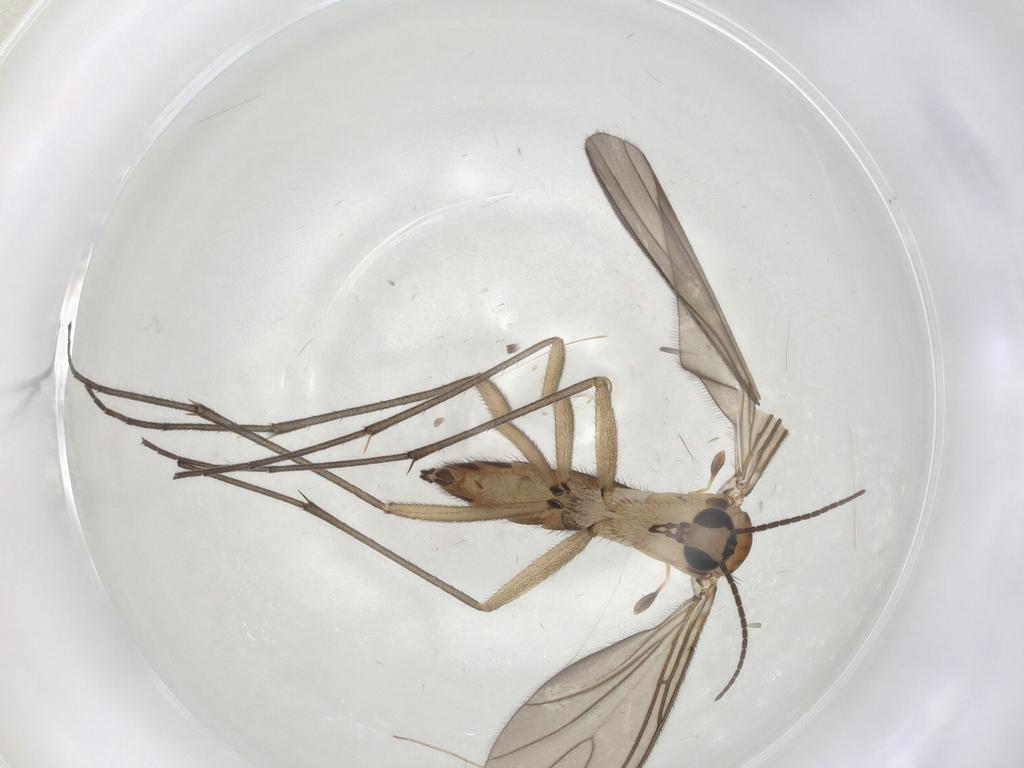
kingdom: Animalia
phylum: Arthropoda
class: Insecta
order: Diptera
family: Sciaridae
